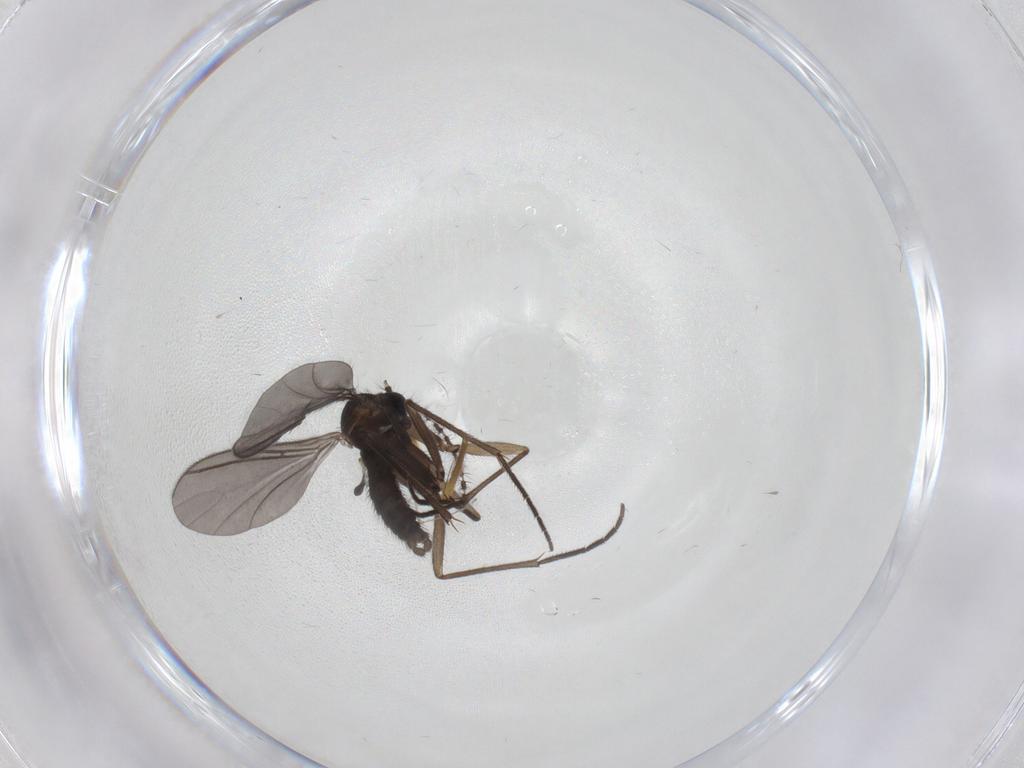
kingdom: Animalia
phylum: Arthropoda
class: Insecta
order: Diptera
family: Sciaridae
